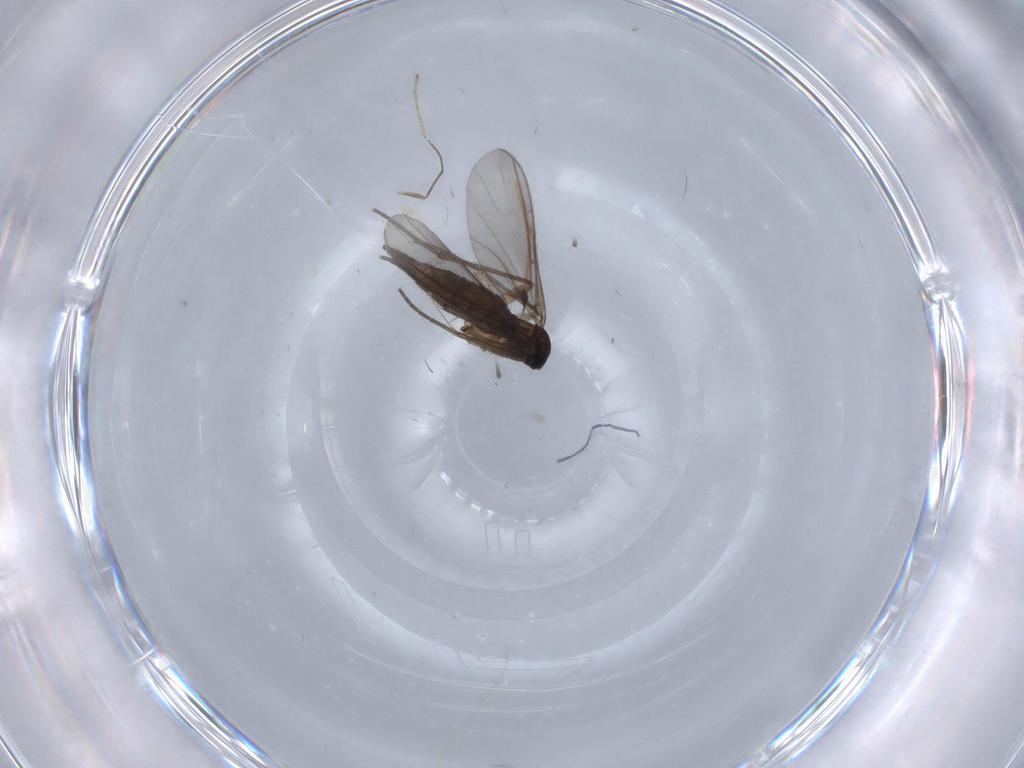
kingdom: Animalia
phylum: Arthropoda
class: Insecta
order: Diptera
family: Sciaridae
